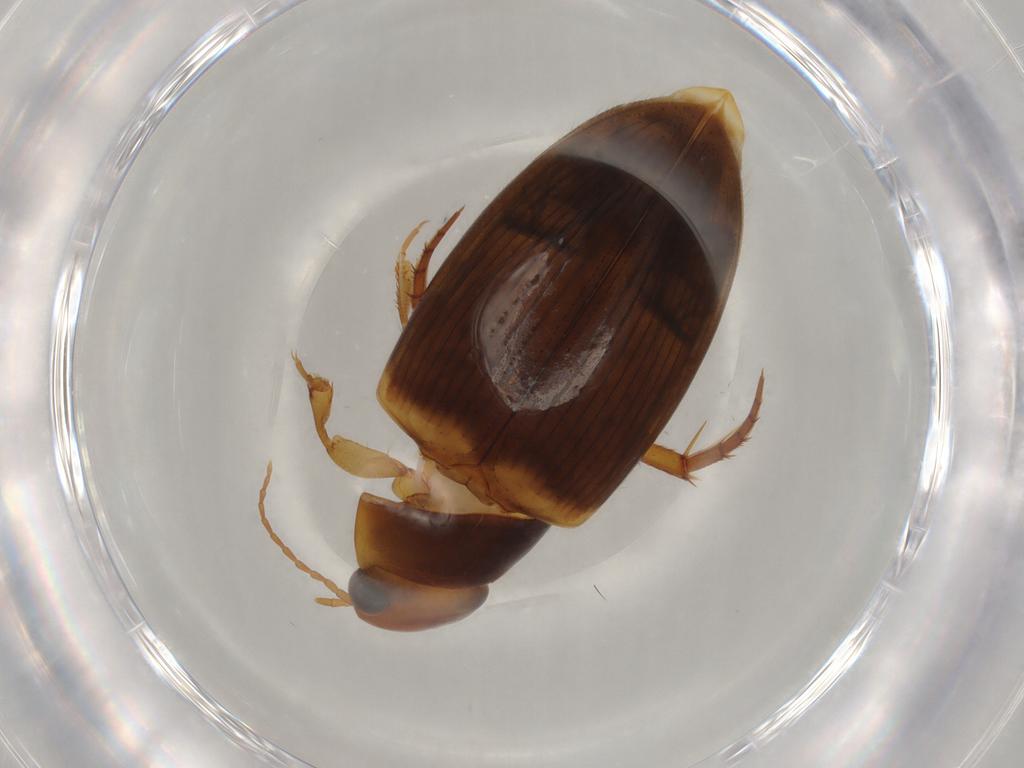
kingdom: Animalia
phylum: Arthropoda
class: Insecta
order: Coleoptera
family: Dytiscidae
